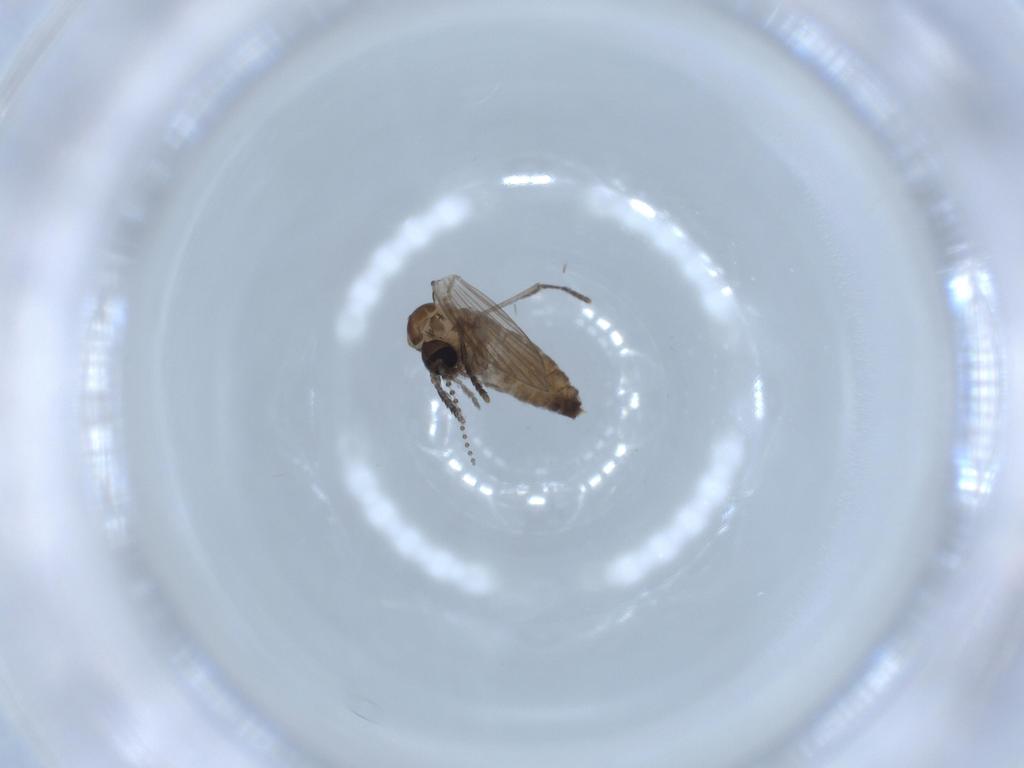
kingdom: Animalia
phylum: Arthropoda
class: Insecta
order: Diptera
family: Psychodidae
